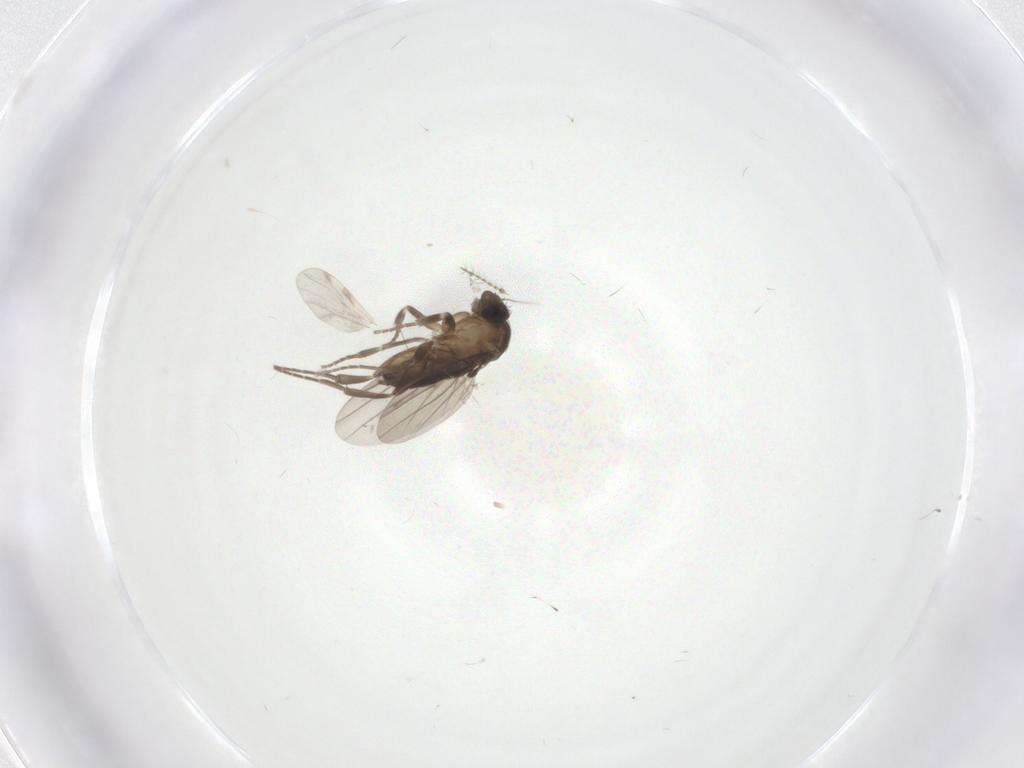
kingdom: Animalia
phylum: Arthropoda
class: Insecta
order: Diptera
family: Ceratopogonidae
